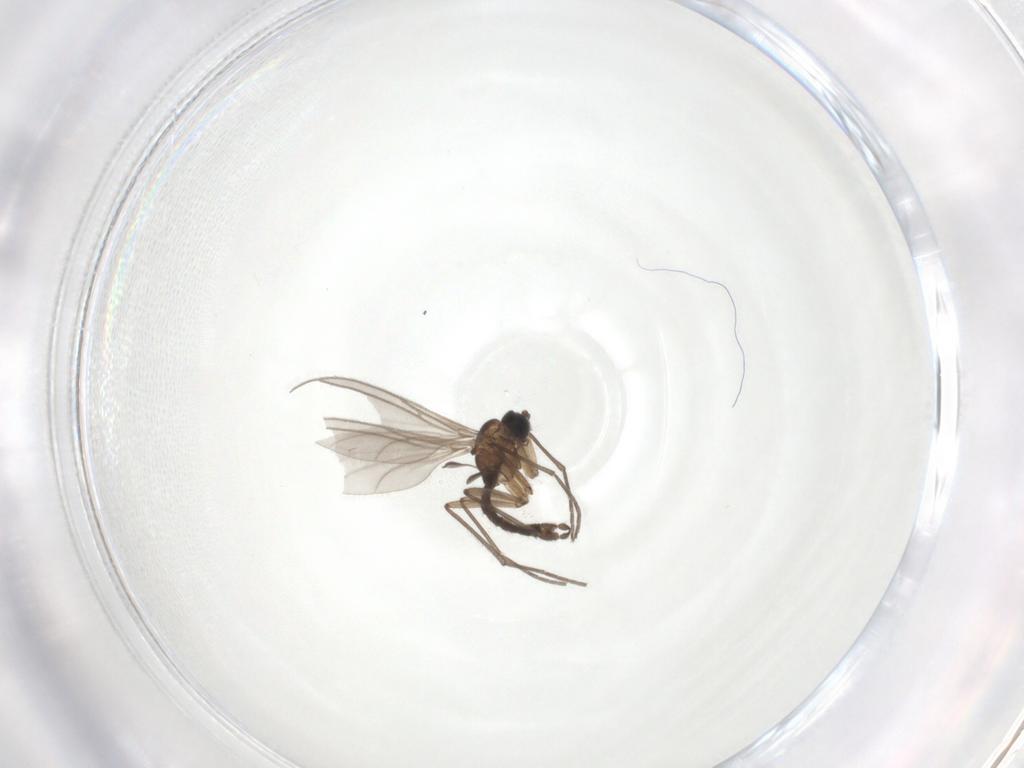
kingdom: Animalia
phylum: Arthropoda
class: Insecta
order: Diptera
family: Sciaridae
